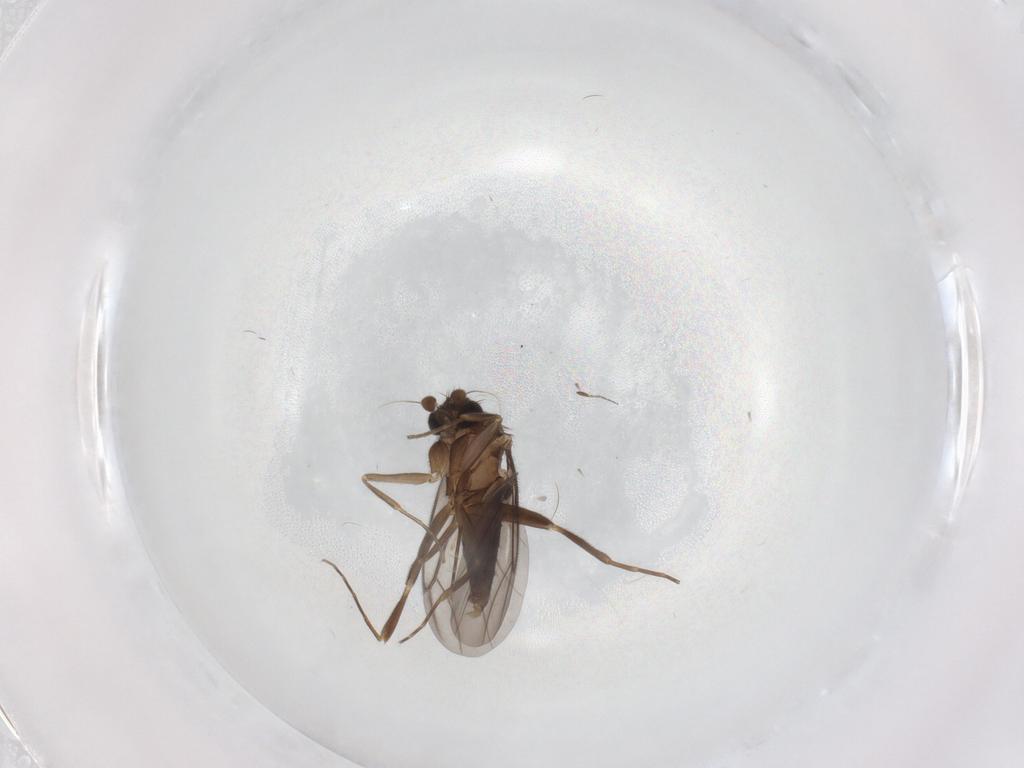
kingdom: Animalia
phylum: Arthropoda
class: Insecta
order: Diptera
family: Phoridae
